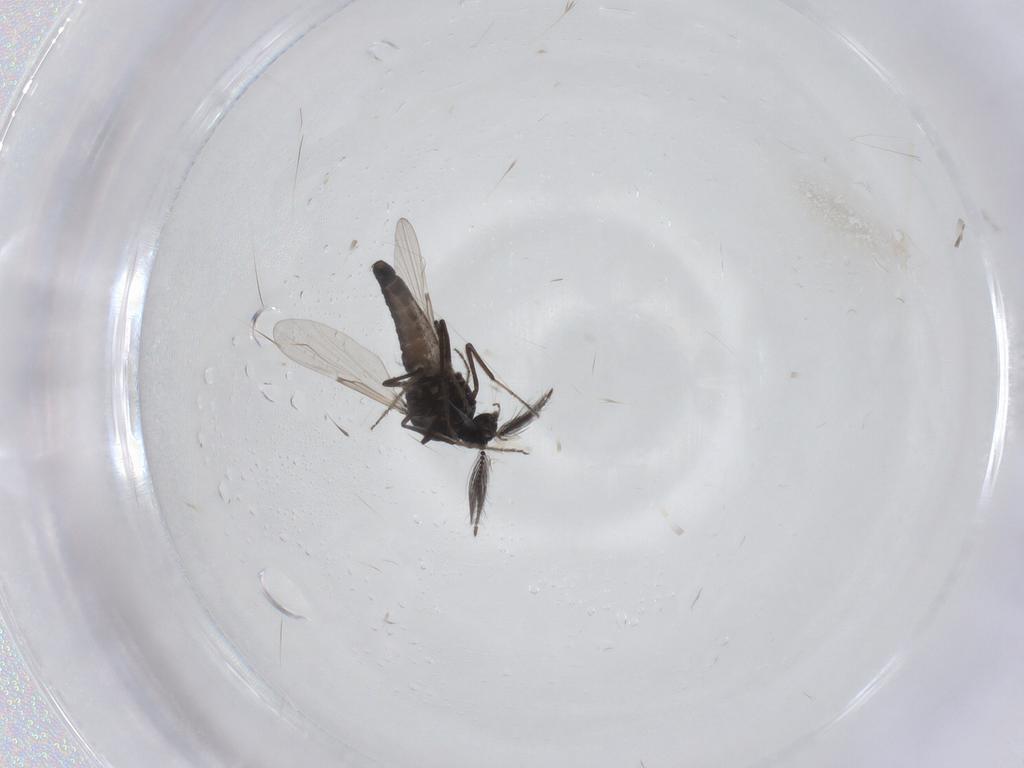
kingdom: Animalia
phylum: Arthropoda
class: Insecta
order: Diptera
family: Ceratopogonidae
